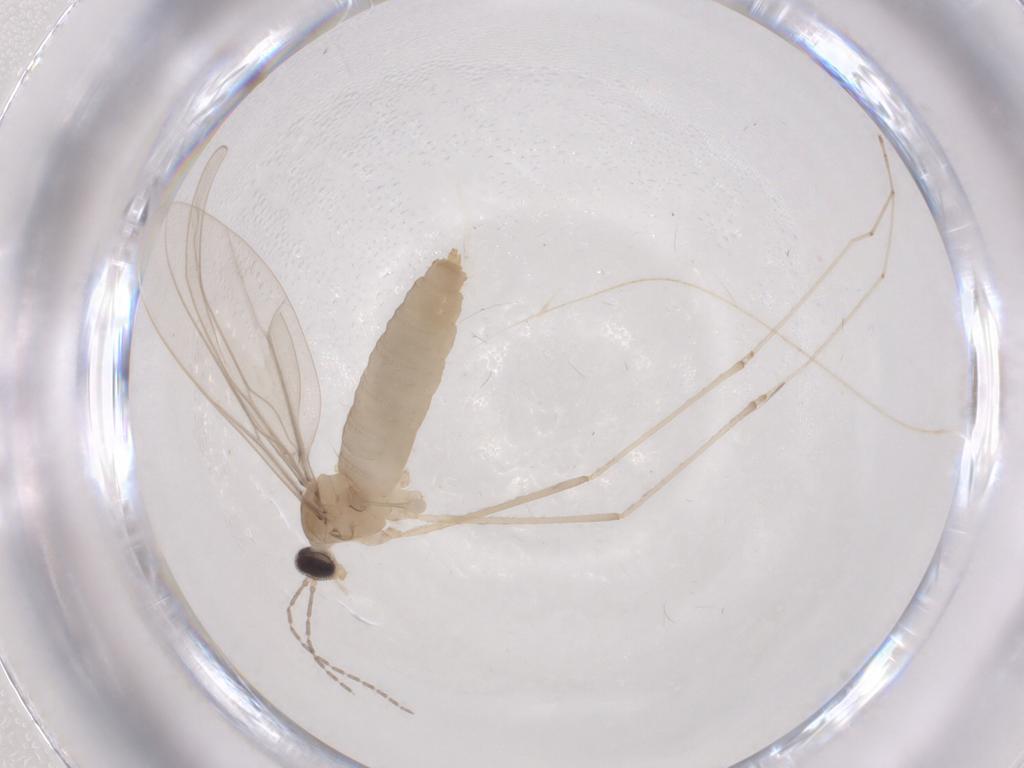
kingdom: Animalia
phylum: Arthropoda
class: Insecta
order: Diptera
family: Cecidomyiidae
